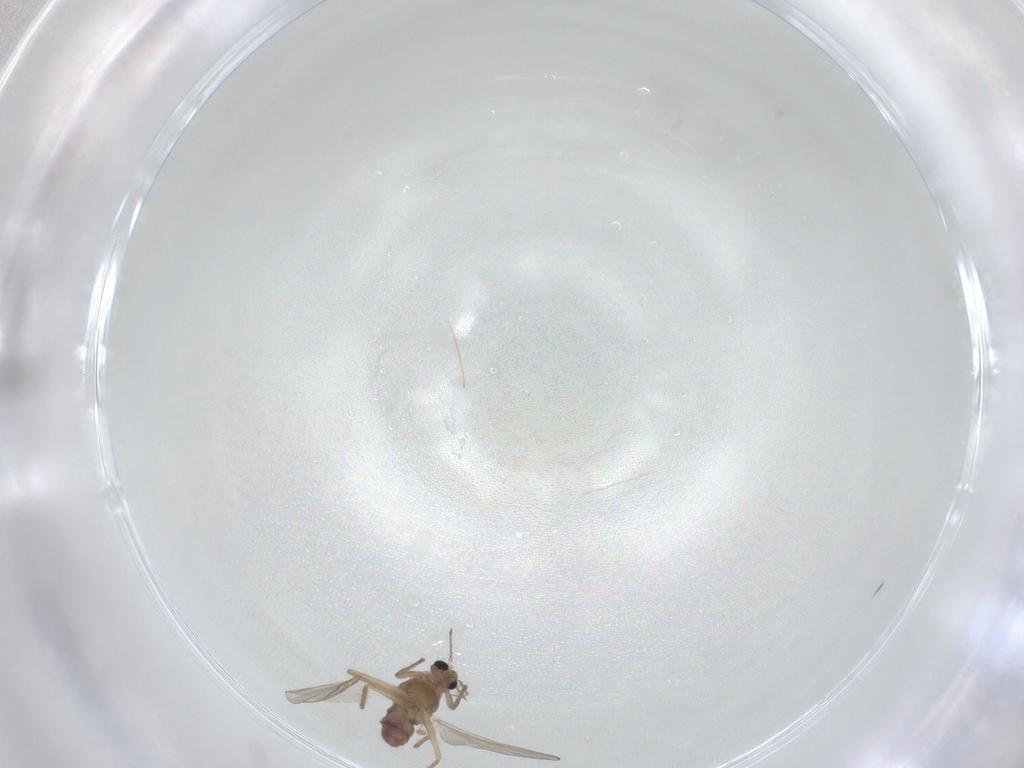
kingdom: Animalia
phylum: Arthropoda
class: Insecta
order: Diptera
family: Chironomidae
